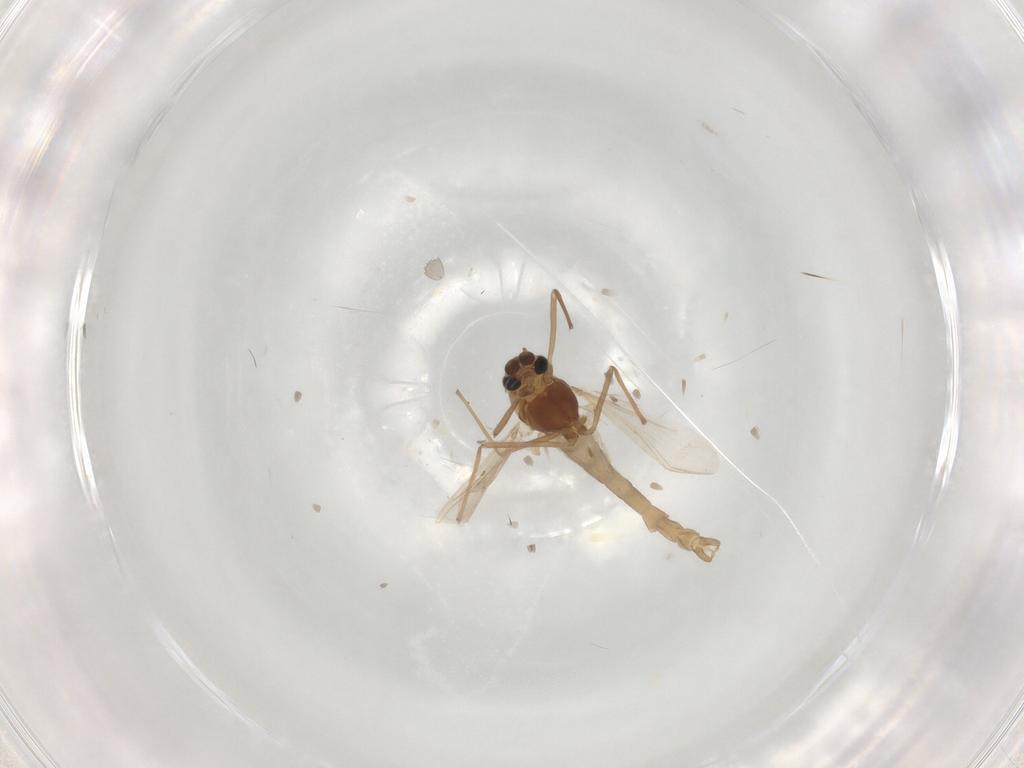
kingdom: Animalia
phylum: Arthropoda
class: Insecta
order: Diptera
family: Chironomidae
